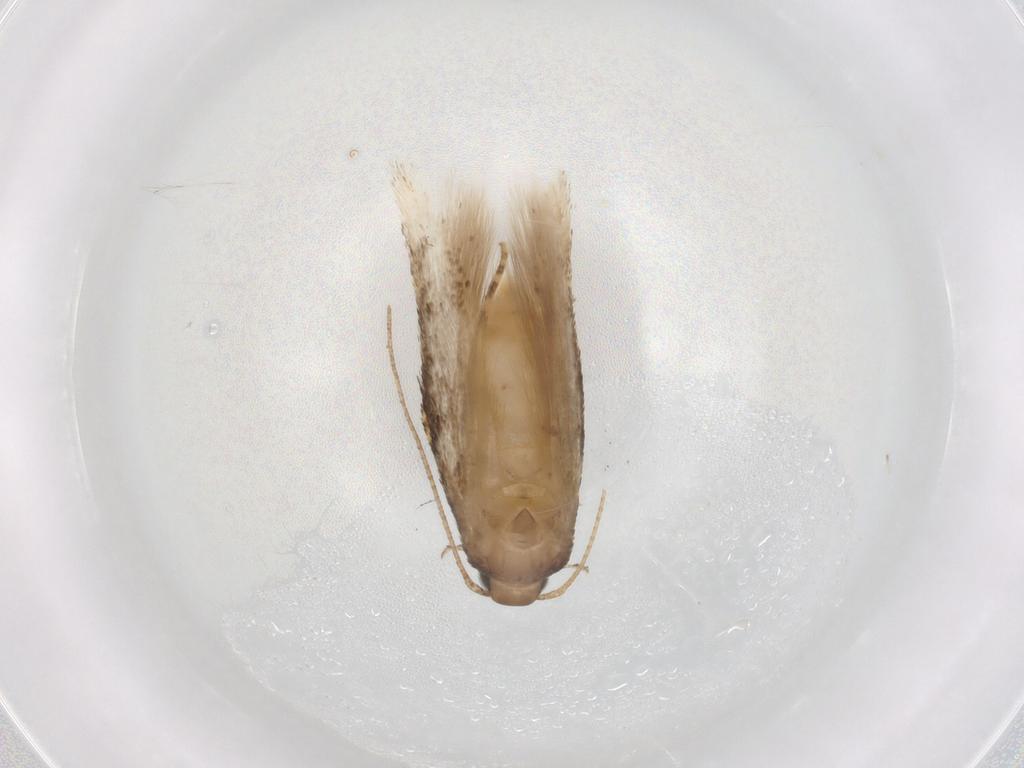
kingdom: Animalia
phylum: Arthropoda
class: Insecta
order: Lepidoptera
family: Gelechiidae
